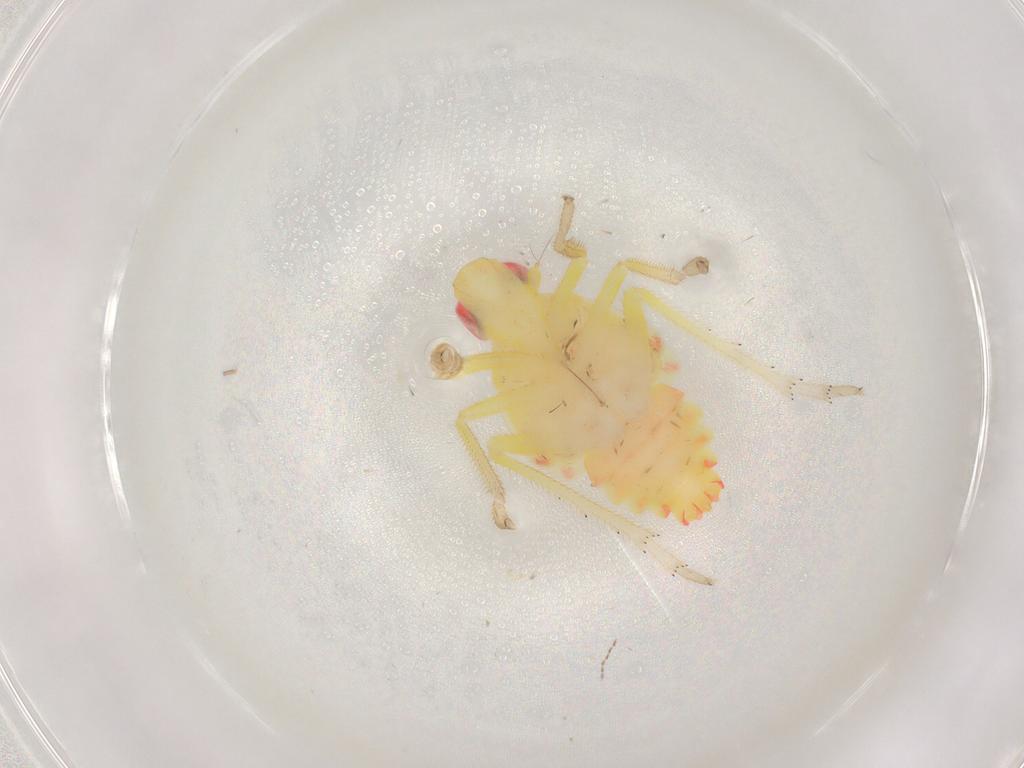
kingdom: Animalia
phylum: Arthropoda
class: Insecta
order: Hemiptera
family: Tropiduchidae
